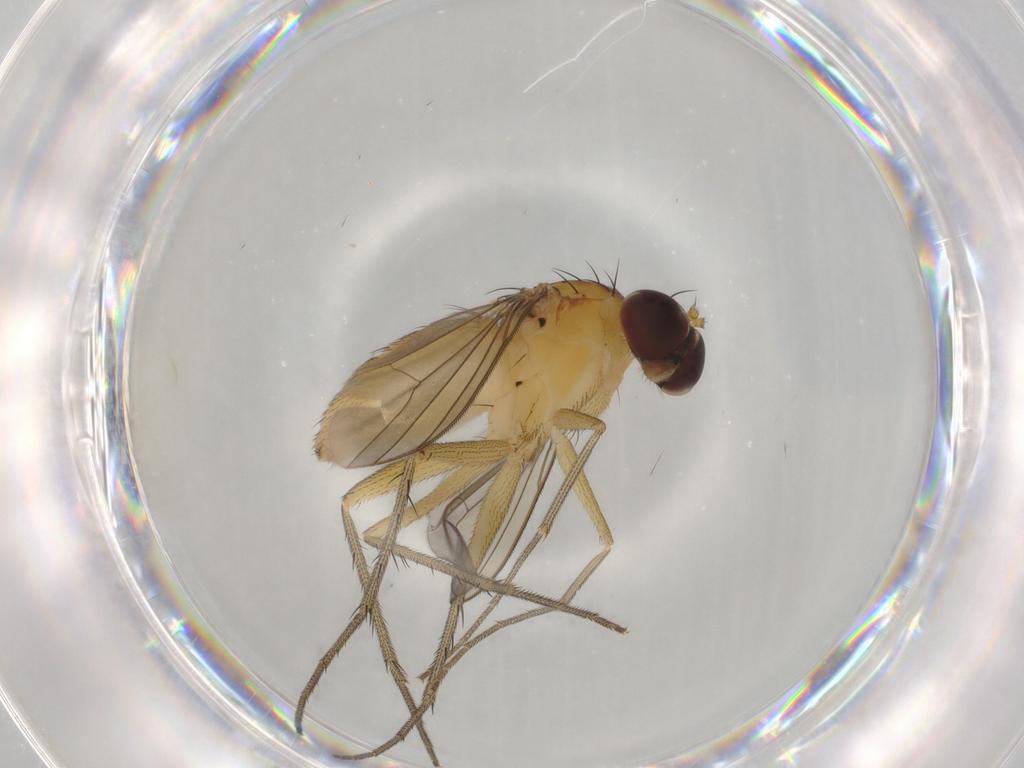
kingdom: Animalia
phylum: Arthropoda
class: Insecta
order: Diptera
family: Dolichopodidae
